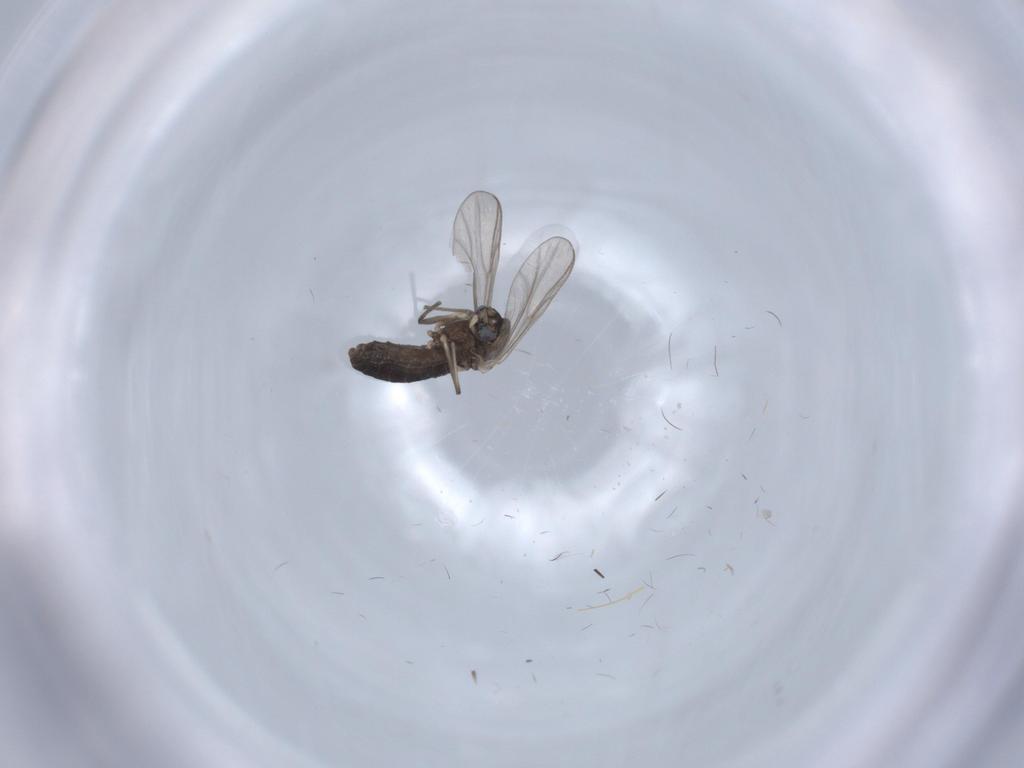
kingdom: Animalia
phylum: Arthropoda
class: Insecta
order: Diptera
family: Chironomidae
